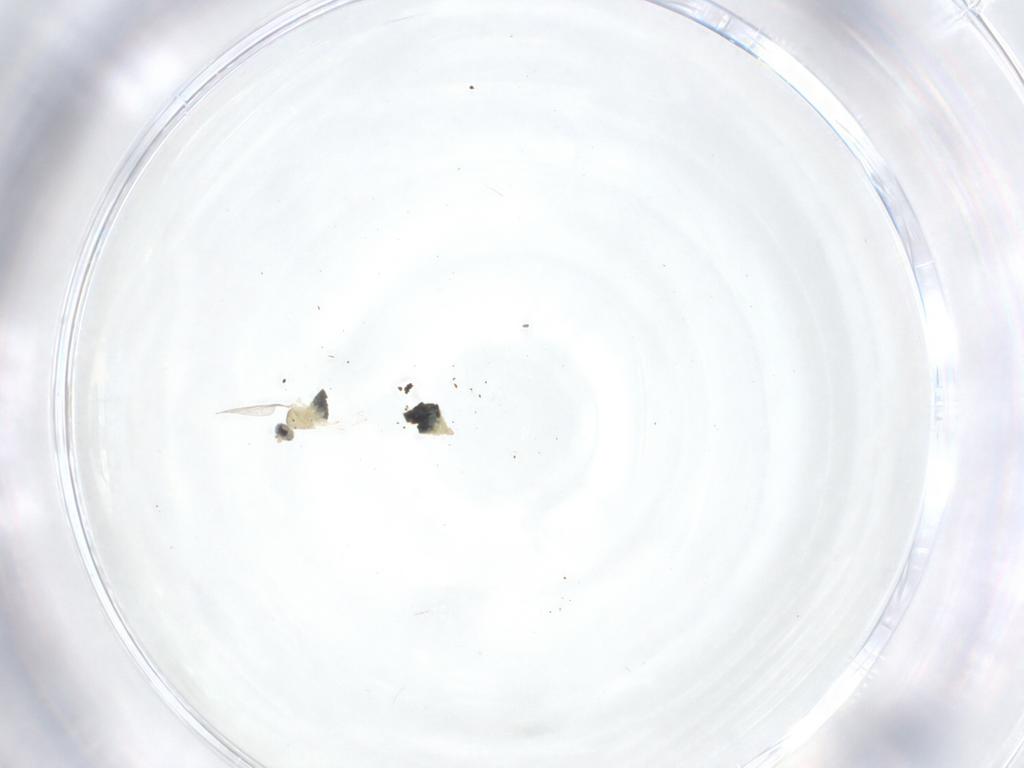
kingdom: Animalia
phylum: Arthropoda
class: Insecta
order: Diptera
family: Cecidomyiidae
